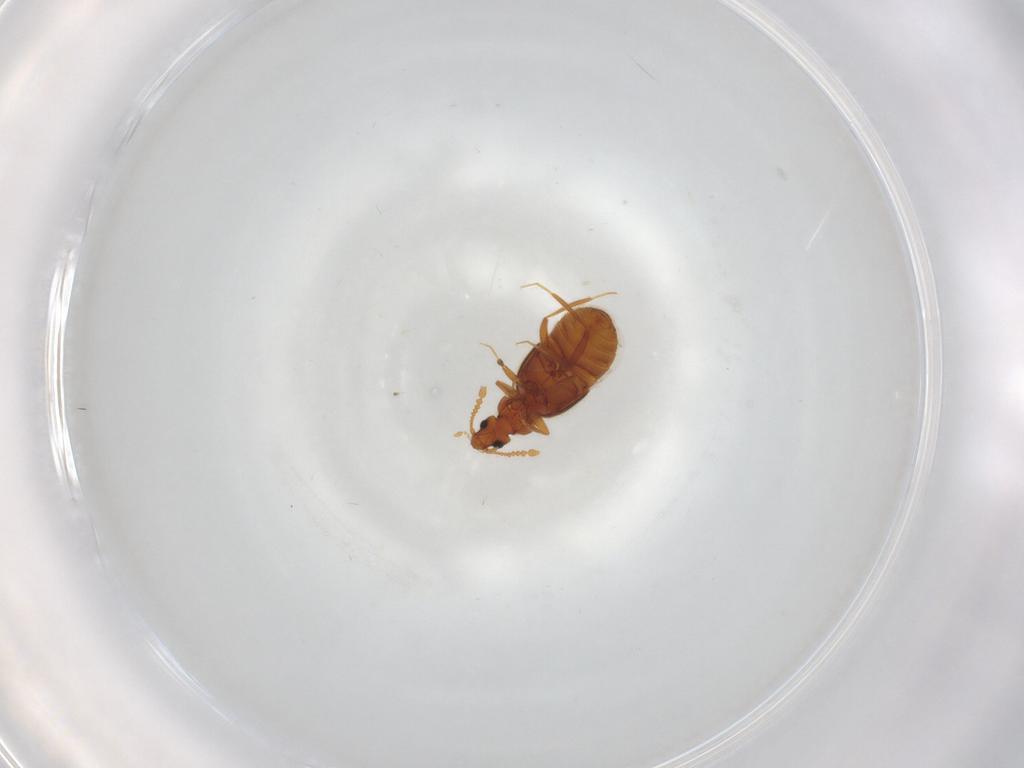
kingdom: Animalia
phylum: Arthropoda
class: Insecta
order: Coleoptera
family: Staphylinidae
